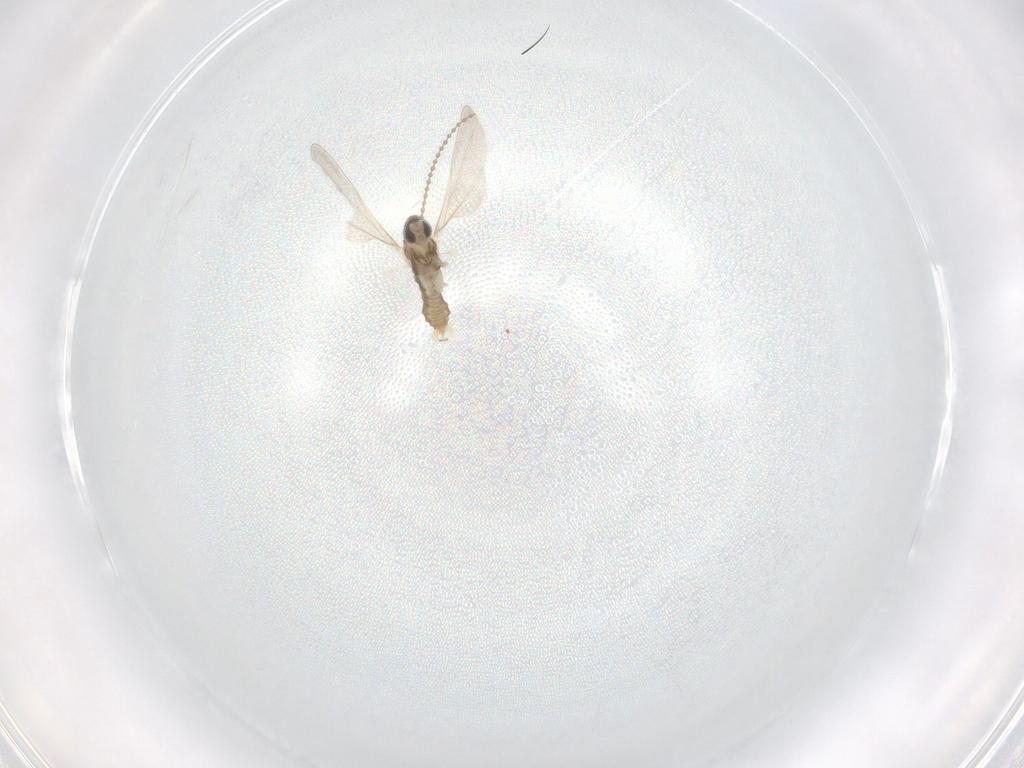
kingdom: Animalia
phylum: Arthropoda
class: Insecta
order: Diptera
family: Cecidomyiidae
